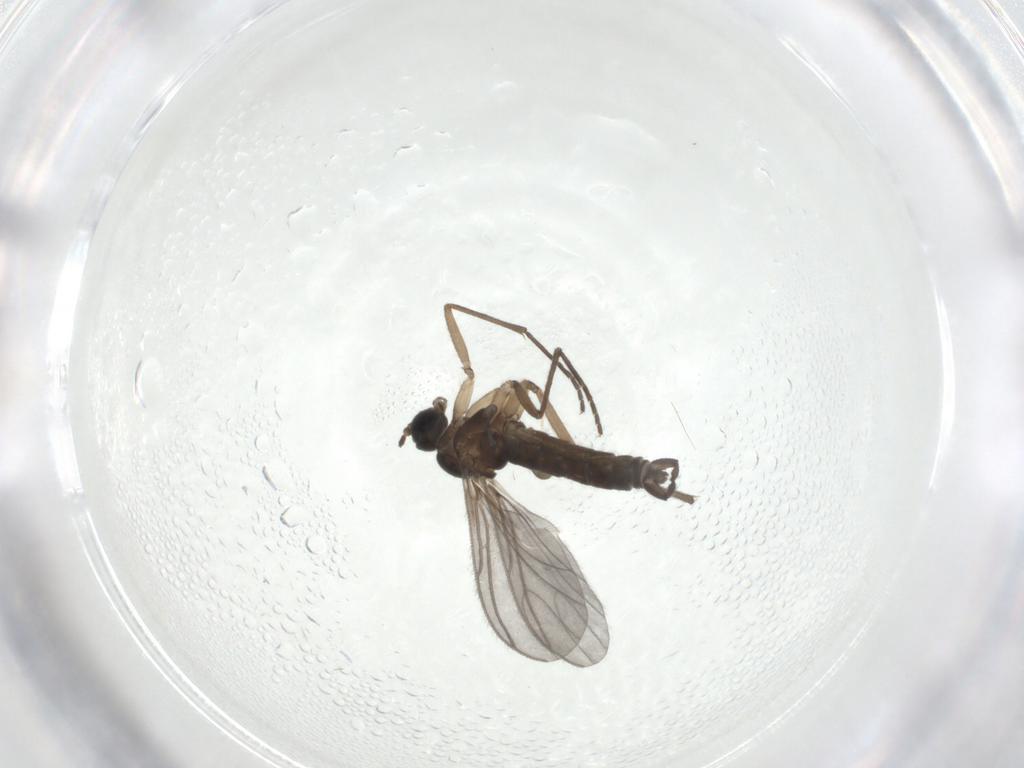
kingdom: Animalia
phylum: Arthropoda
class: Insecta
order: Diptera
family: Sciaridae
